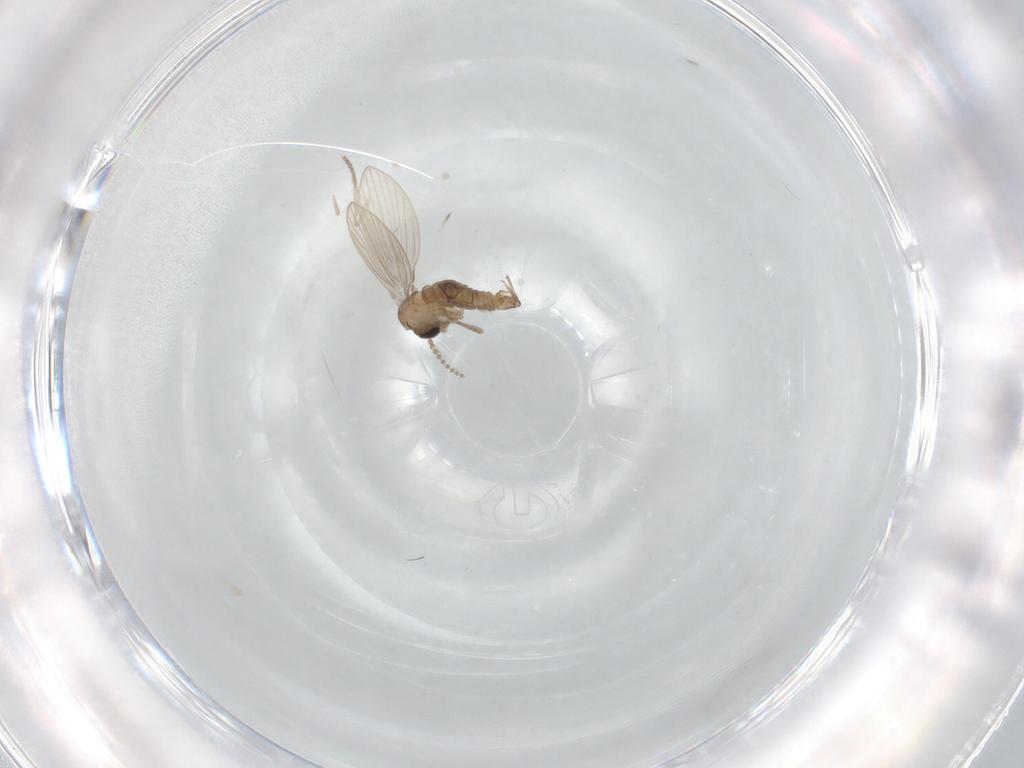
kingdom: Animalia
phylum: Arthropoda
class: Insecta
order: Diptera
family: Psychodidae
